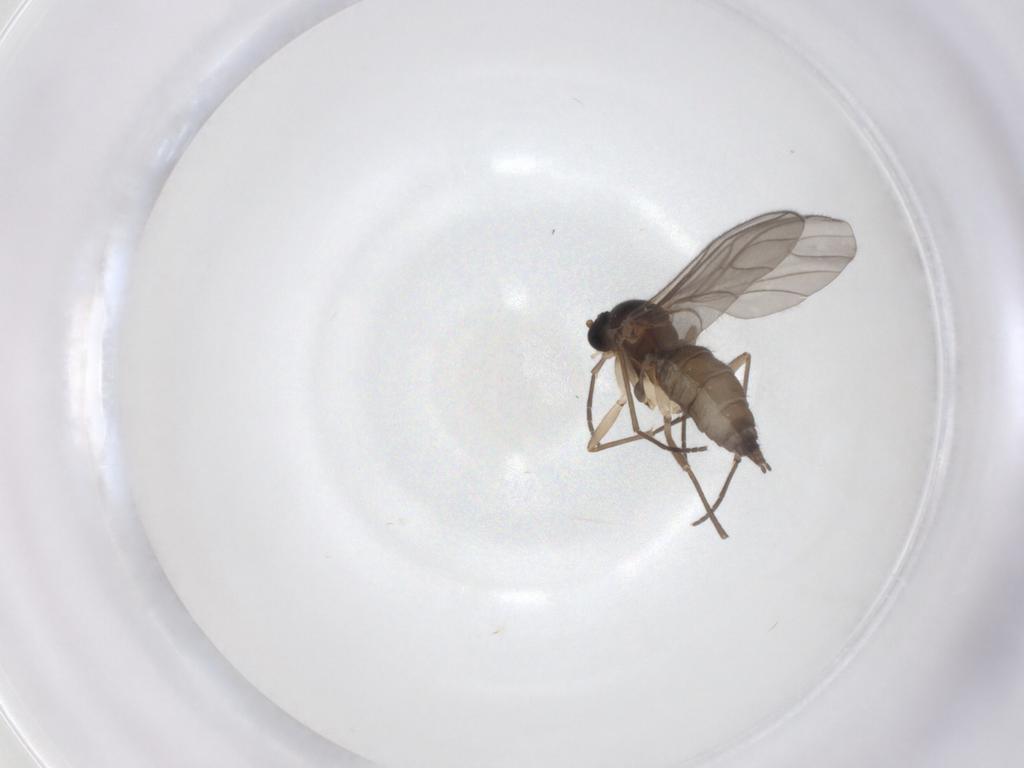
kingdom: Animalia
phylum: Arthropoda
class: Insecta
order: Diptera
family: Sciaridae
